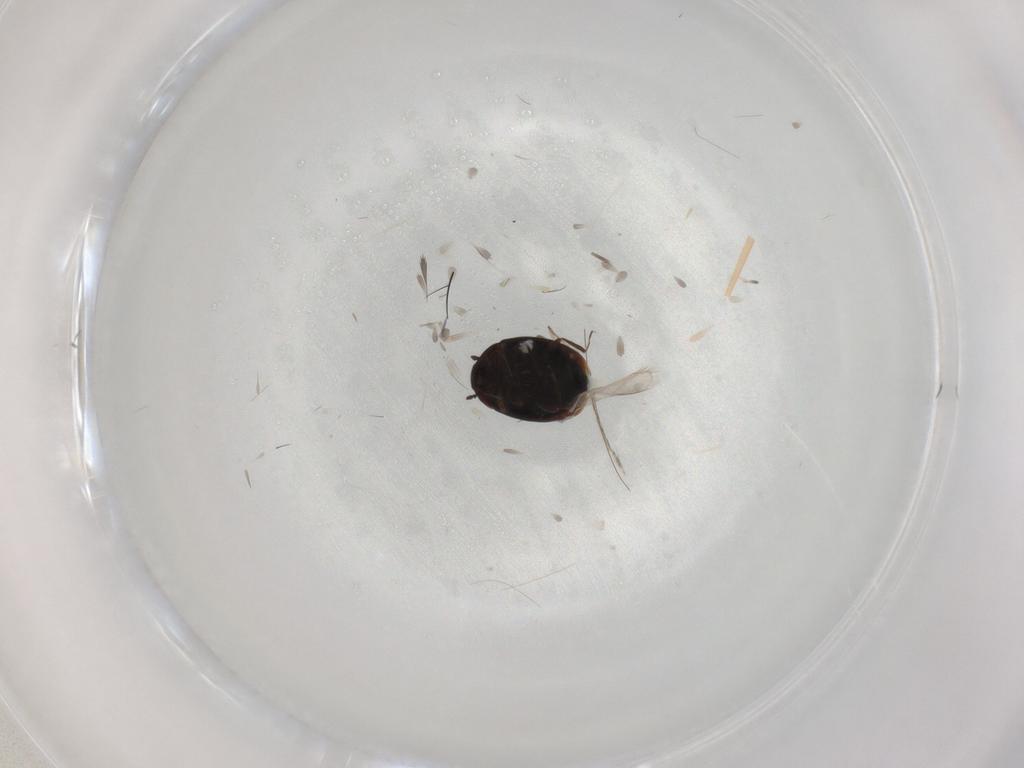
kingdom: Animalia
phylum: Arthropoda
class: Insecta
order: Coleoptera
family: Corylophidae
